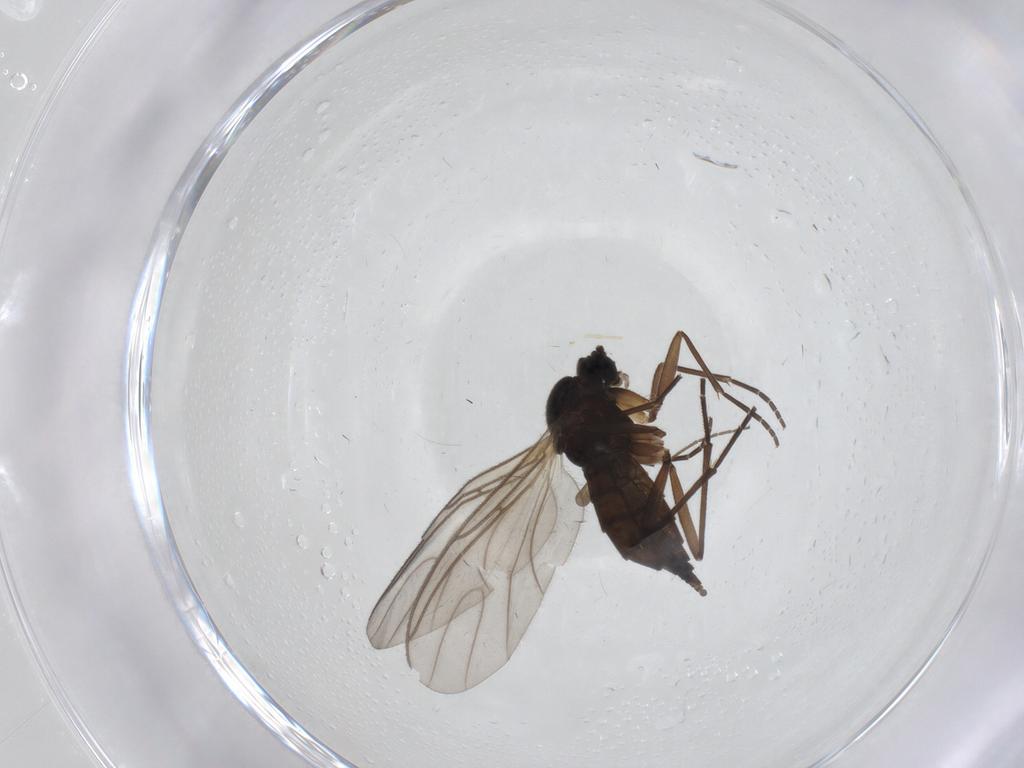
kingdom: Animalia
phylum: Arthropoda
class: Insecta
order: Diptera
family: Sciaridae
